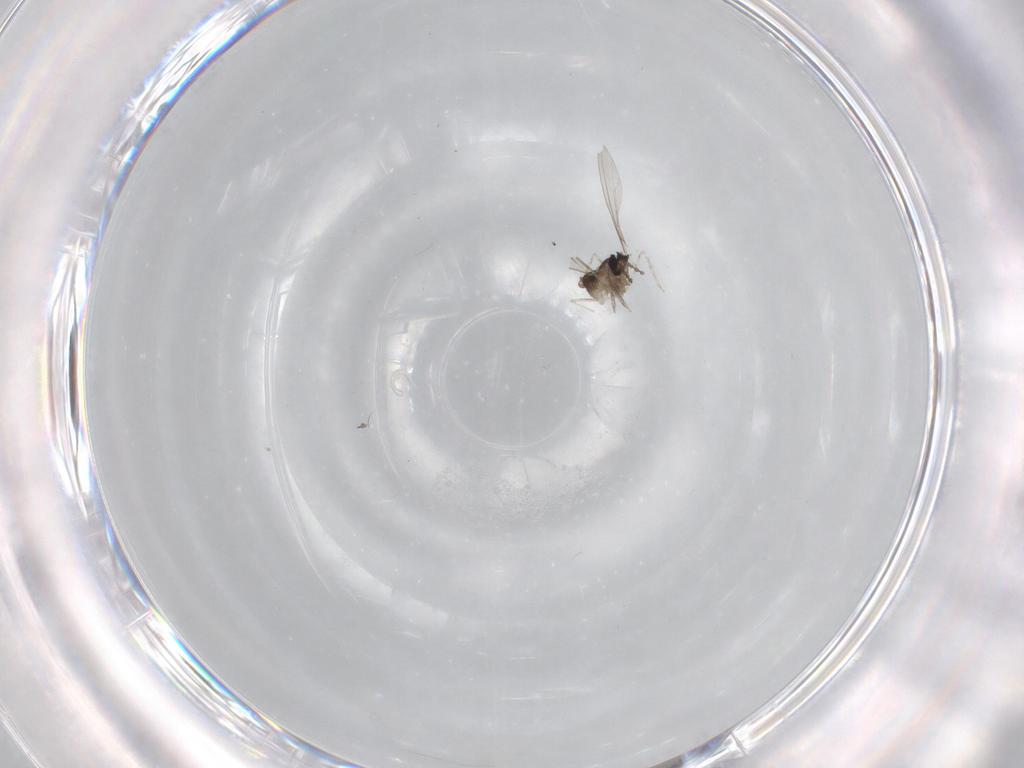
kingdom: Animalia
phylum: Arthropoda
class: Insecta
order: Diptera
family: Cecidomyiidae
